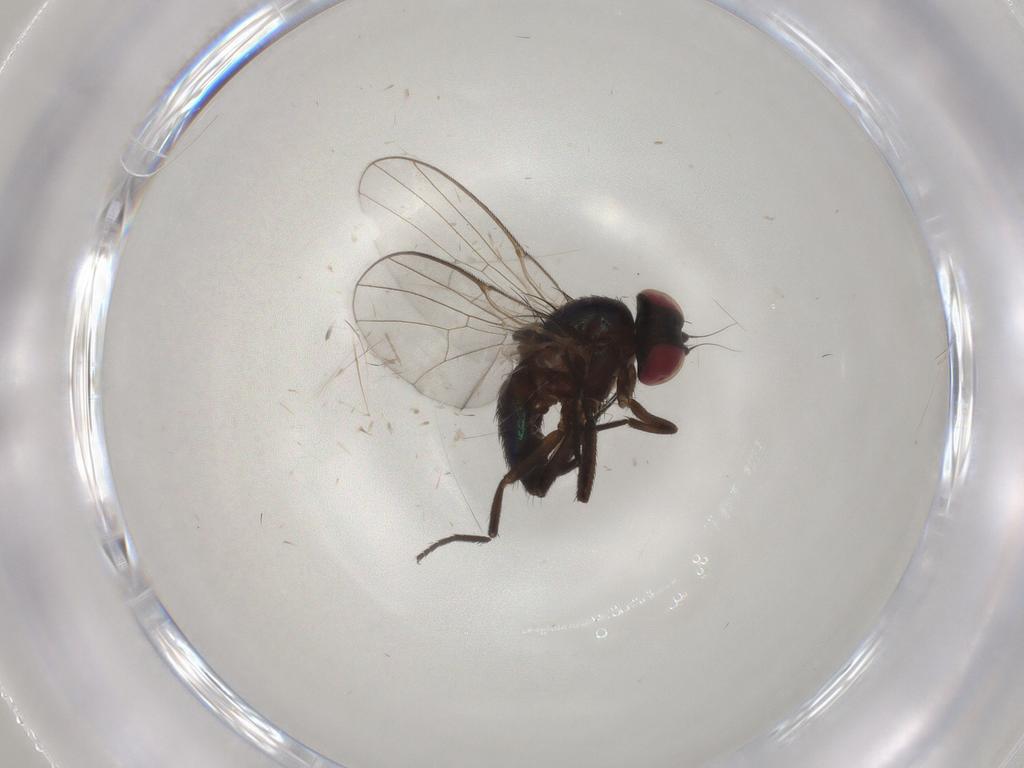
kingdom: Animalia
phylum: Arthropoda
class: Insecta
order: Diptera
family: Agromyzidae
